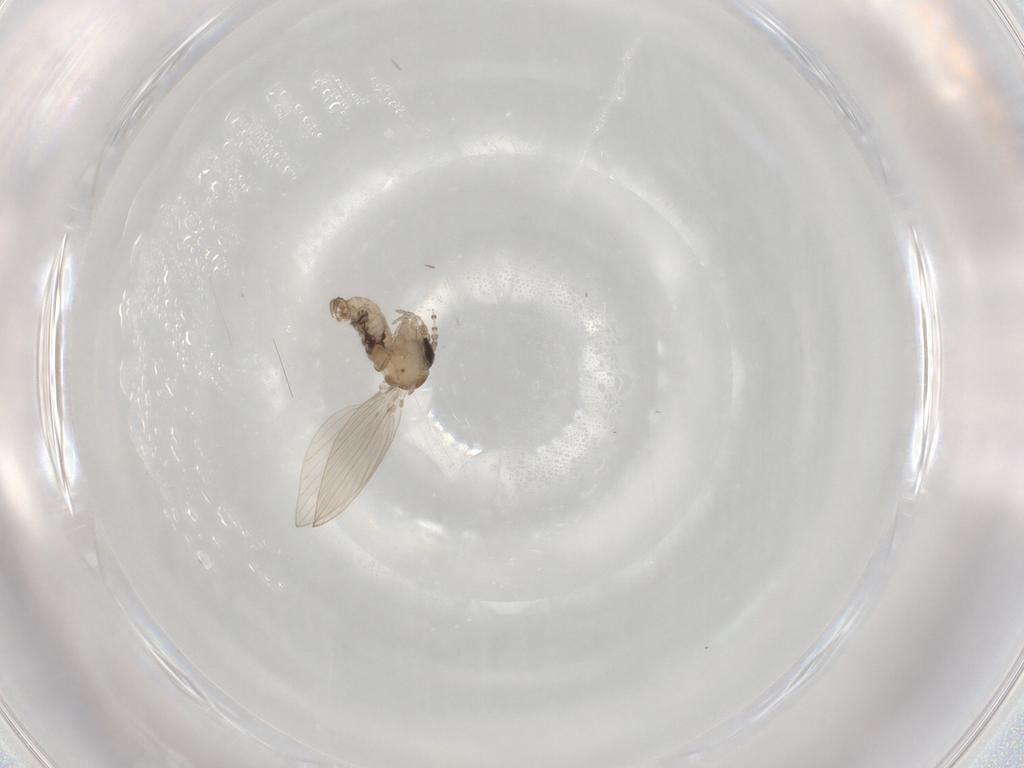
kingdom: Animalia
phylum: Arthropoda
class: Insecta
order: Diptera
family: Psychodidae
